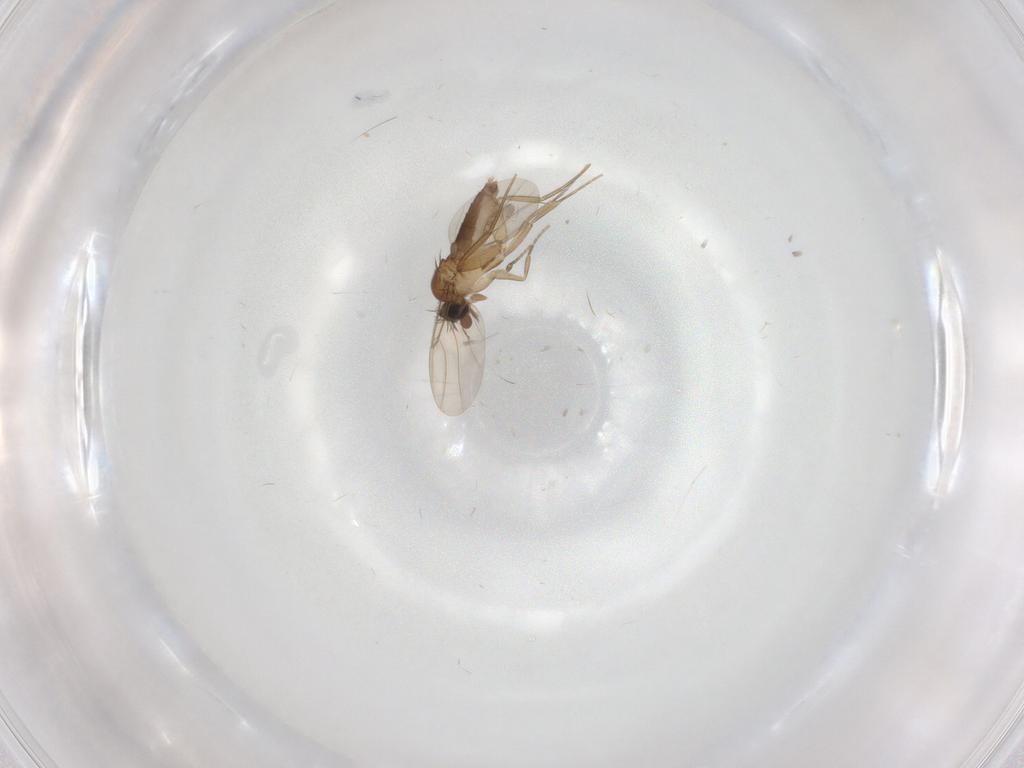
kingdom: Animalia
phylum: Arthropoda
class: Insecta
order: Diptera
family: Phoridae
